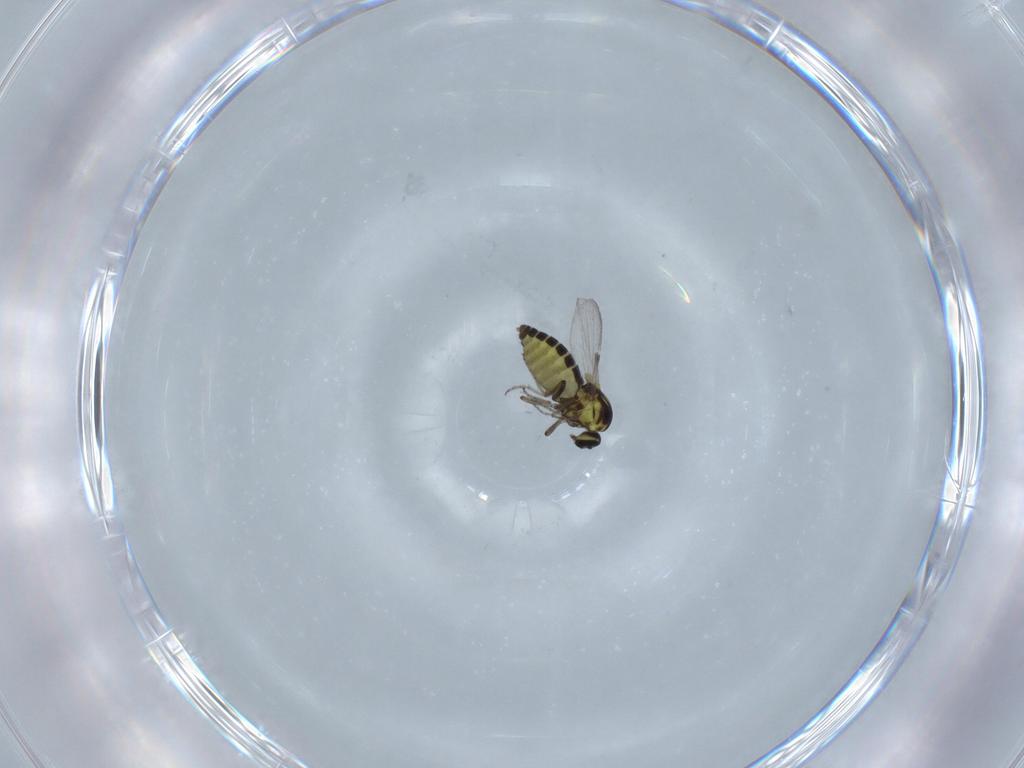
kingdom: Animalia
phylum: Arthropoda
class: Insecta
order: Diptera
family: Ceratopogonidae
